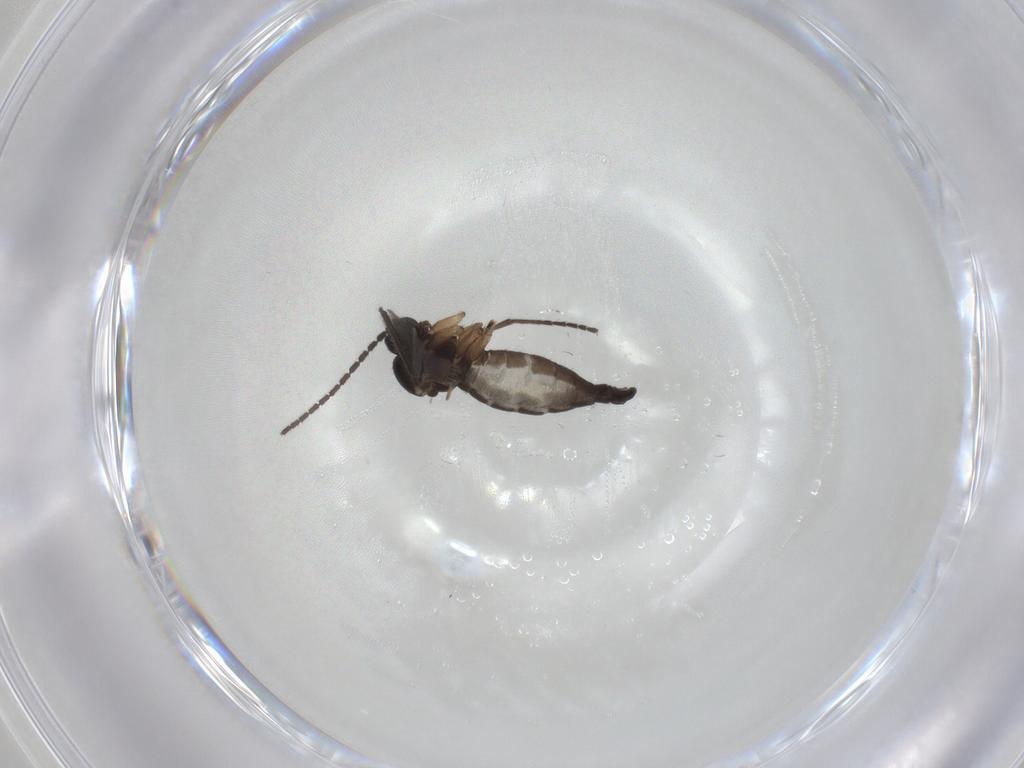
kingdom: Animalia
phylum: Arthropoda
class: Insecta
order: Diptera
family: Sciaridae
